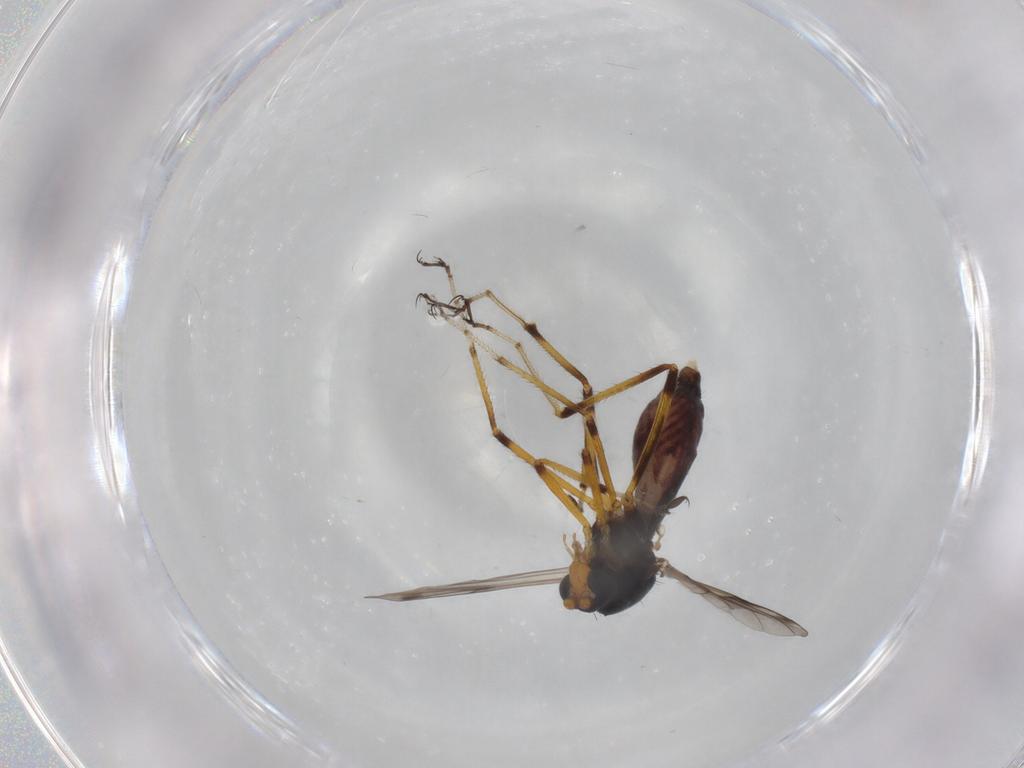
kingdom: Animalia
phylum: Arthropoda
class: Insecta
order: Diptera
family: Ceratopogonidae
